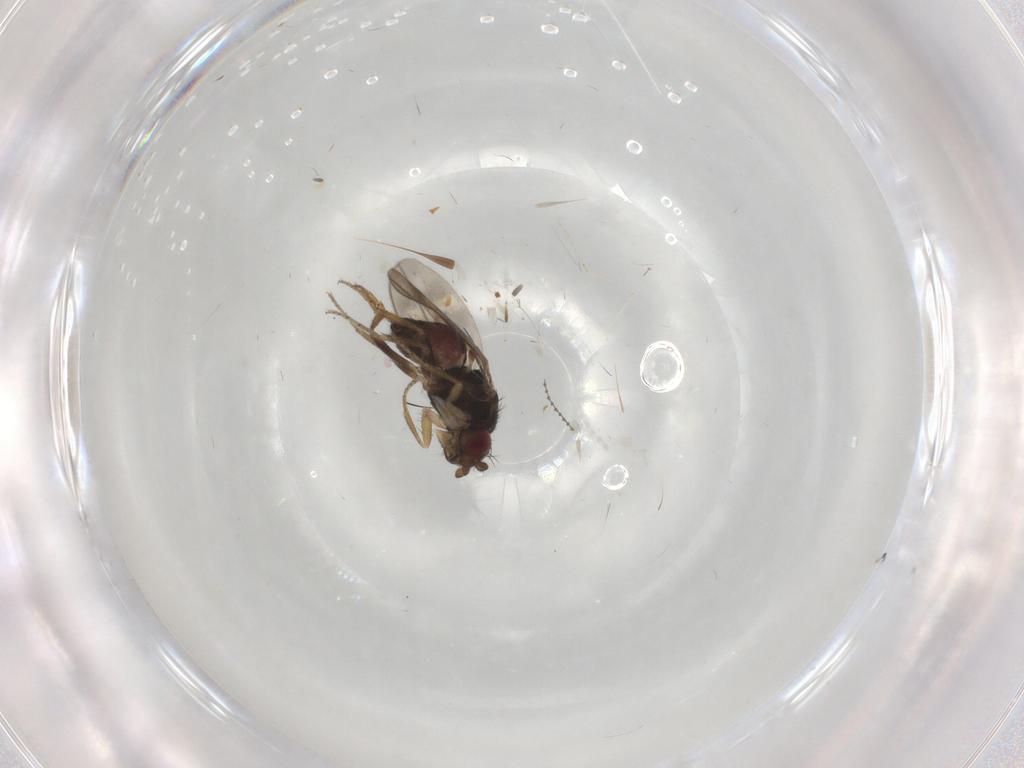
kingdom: Animalia
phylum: Arthropoda
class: Insecta
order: Diptera
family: Sphaeroceridae
